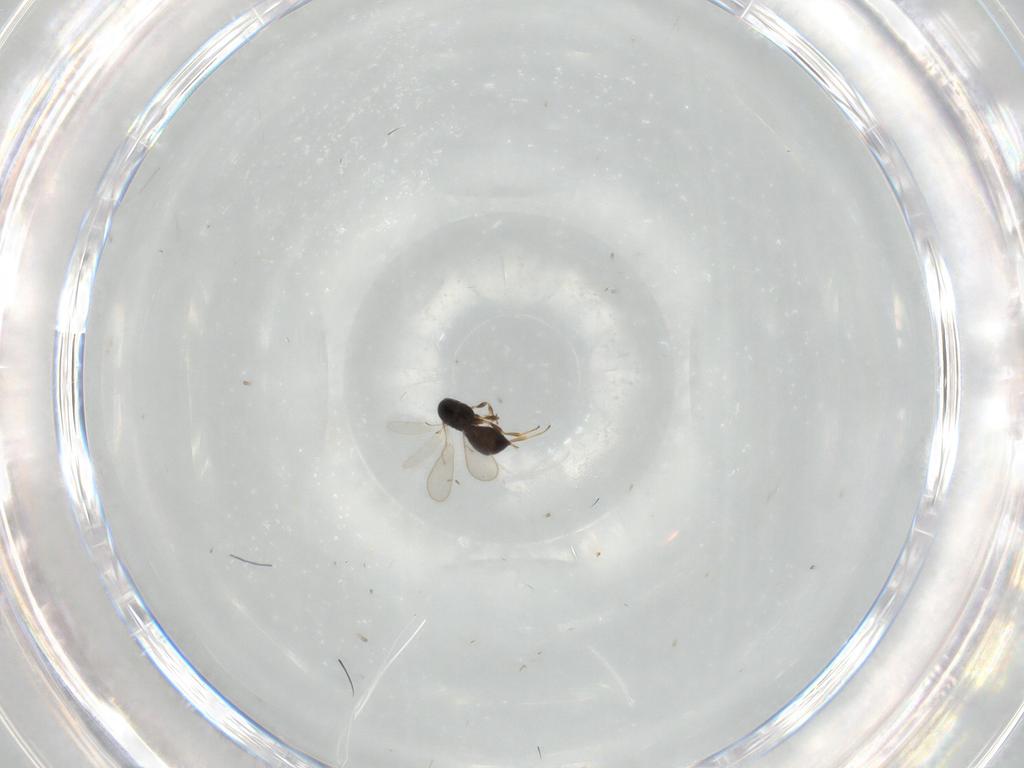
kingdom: Animalia
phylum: Arthropoda
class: Insecta
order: Hymenoptera
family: Scelionidae
